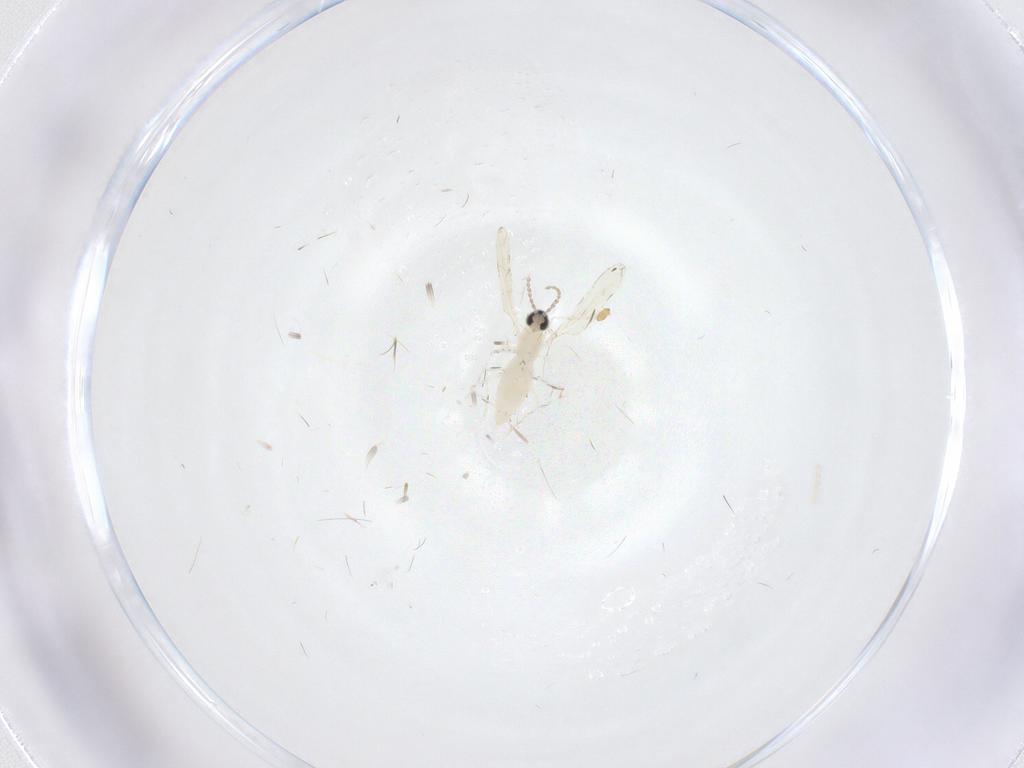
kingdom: Animalia
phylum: Arthropoda
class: Insecta
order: Diptera
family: Cecidomyiidae
